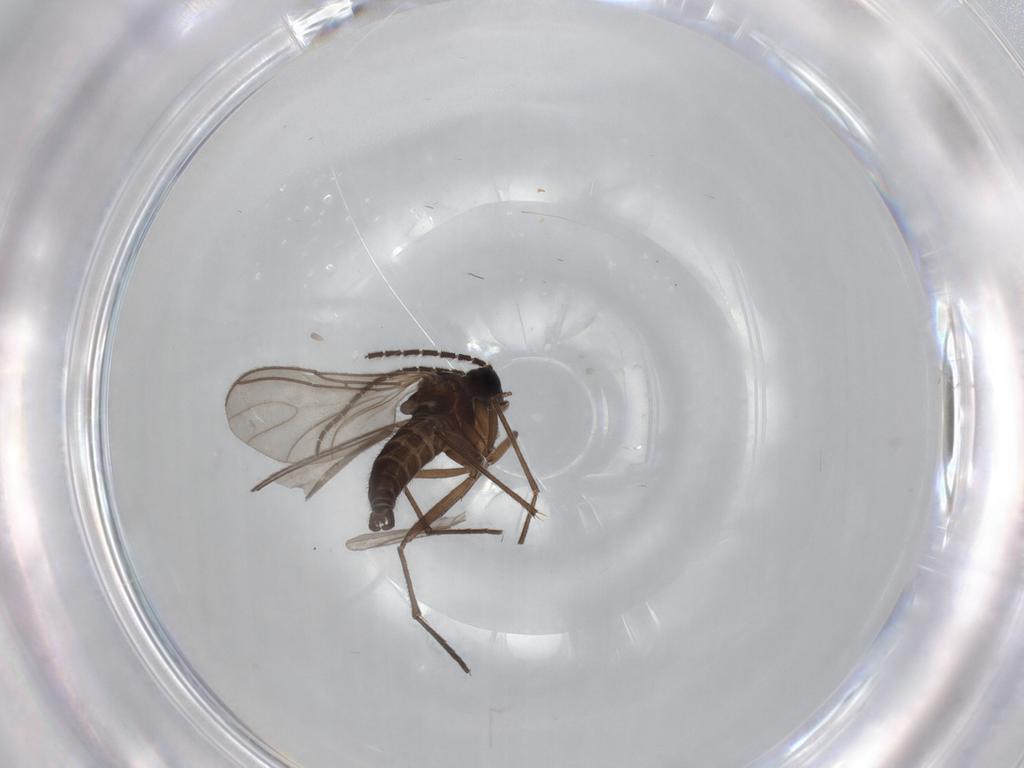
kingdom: Animalia
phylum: Arthropoda
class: Insecta
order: Diptera
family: Sciaridae
